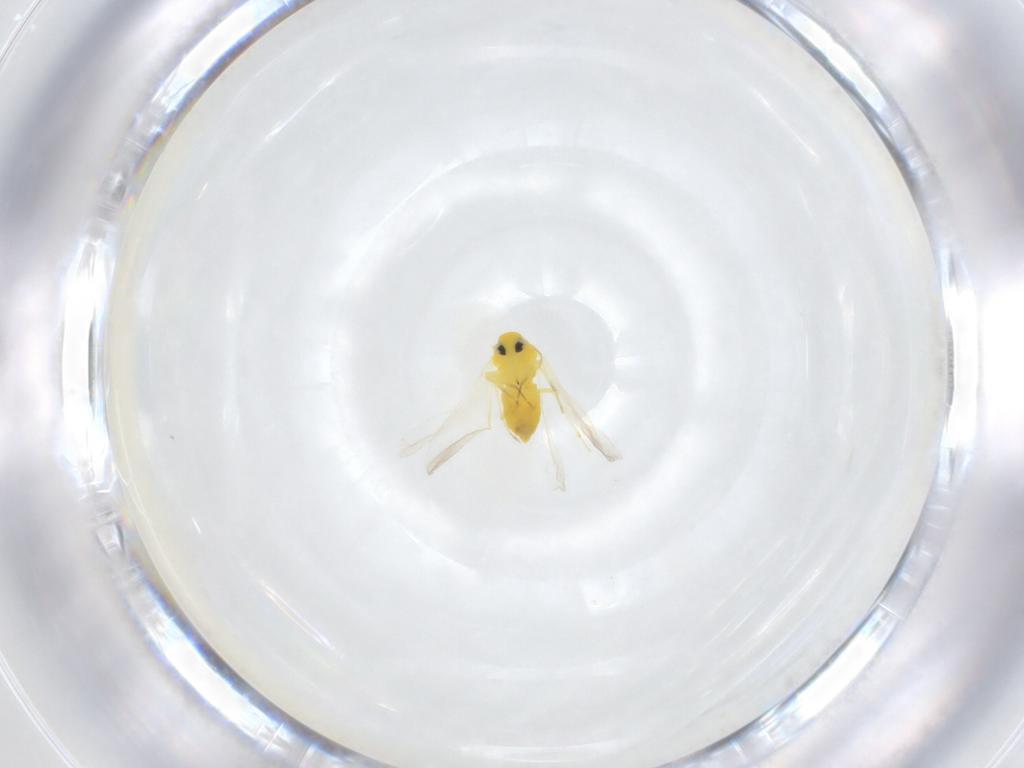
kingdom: Animalia
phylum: Arthropoda
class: Insecta
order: Hemiptera
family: Aleyrodidae
